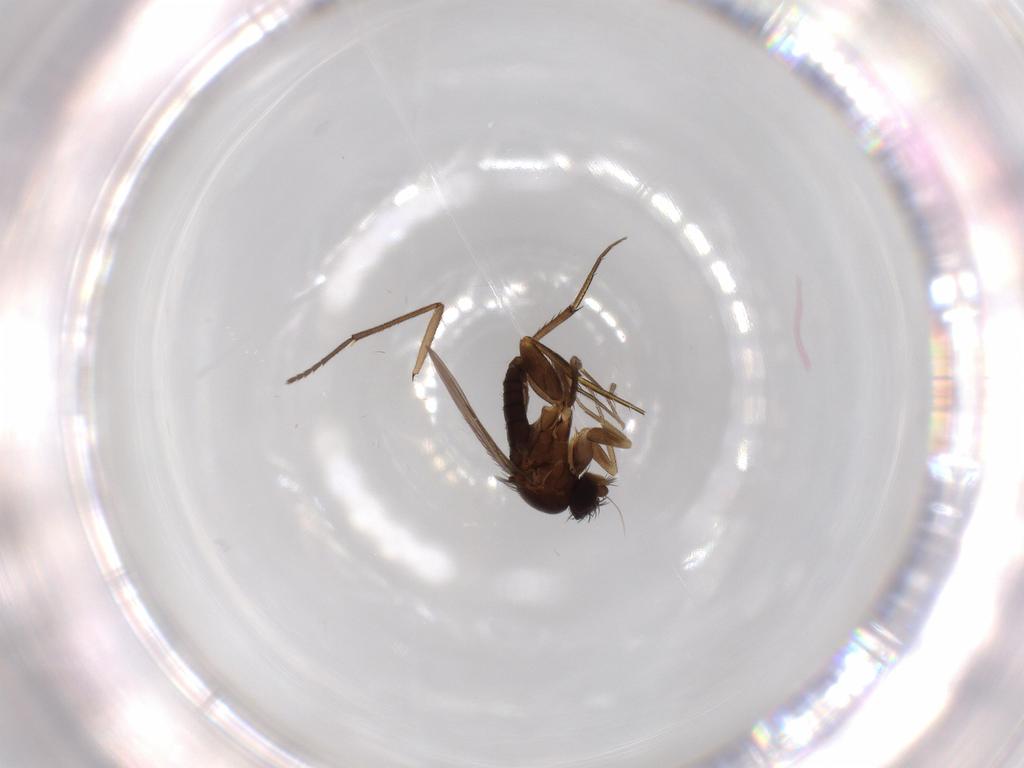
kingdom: Animalia
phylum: Arthropoda
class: Insecta
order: Diptera
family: Phoridae
